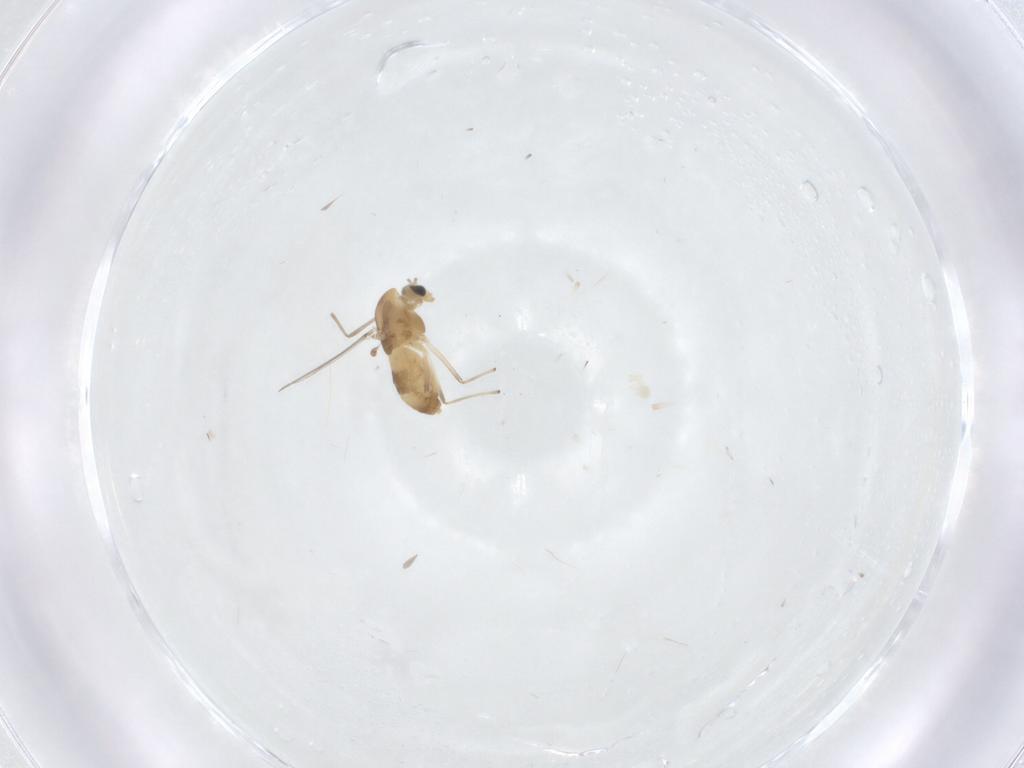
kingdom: Animalia
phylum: Arthropoda
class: Insecta
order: Diptera
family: Chironomidae
